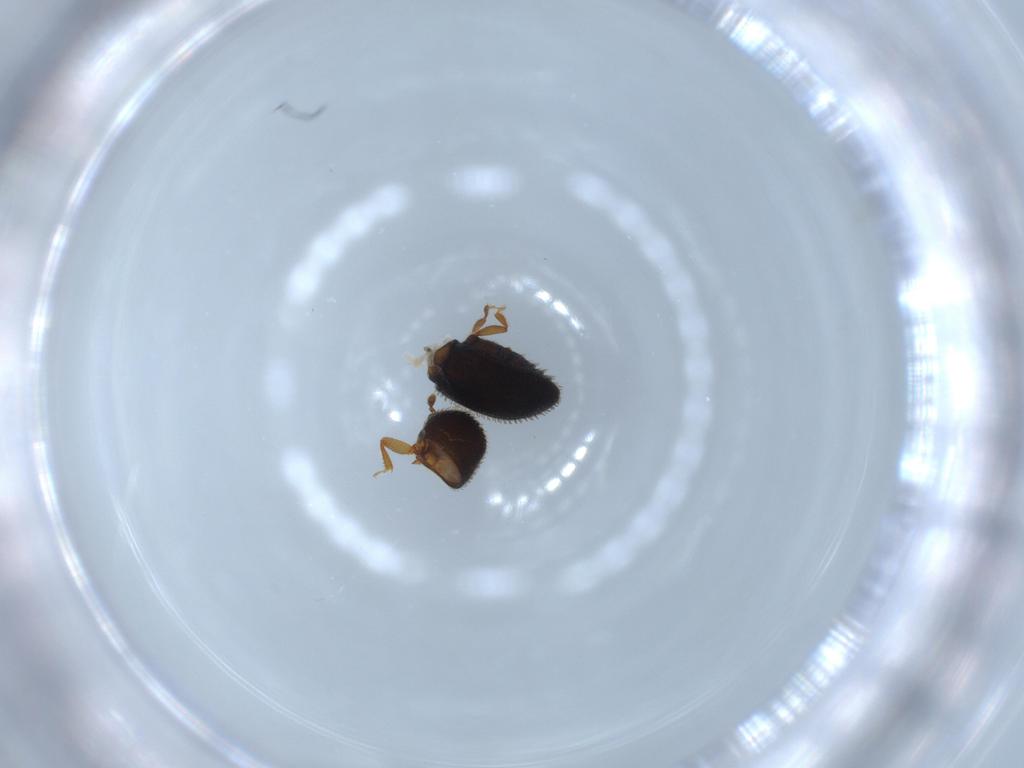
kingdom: Animalia
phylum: Arthropoda
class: Insecta
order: Coleoptera
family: Curculionidae
